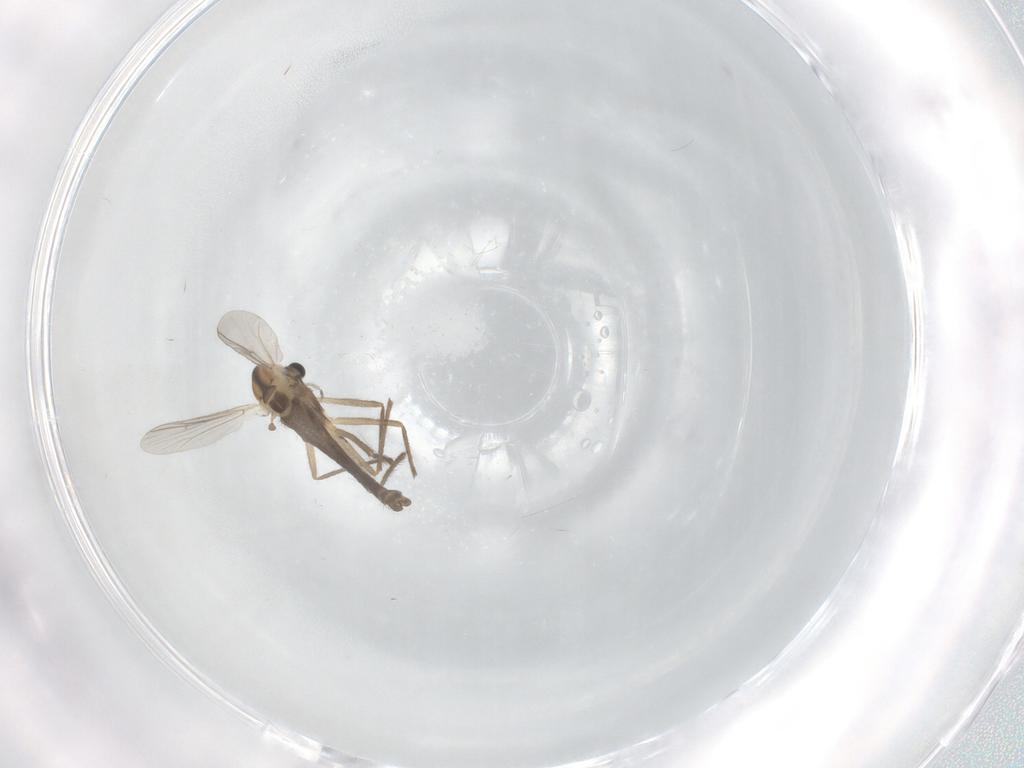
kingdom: Animalia
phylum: Arthropoda
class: Insecta
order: Diptera
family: Chironomidae
